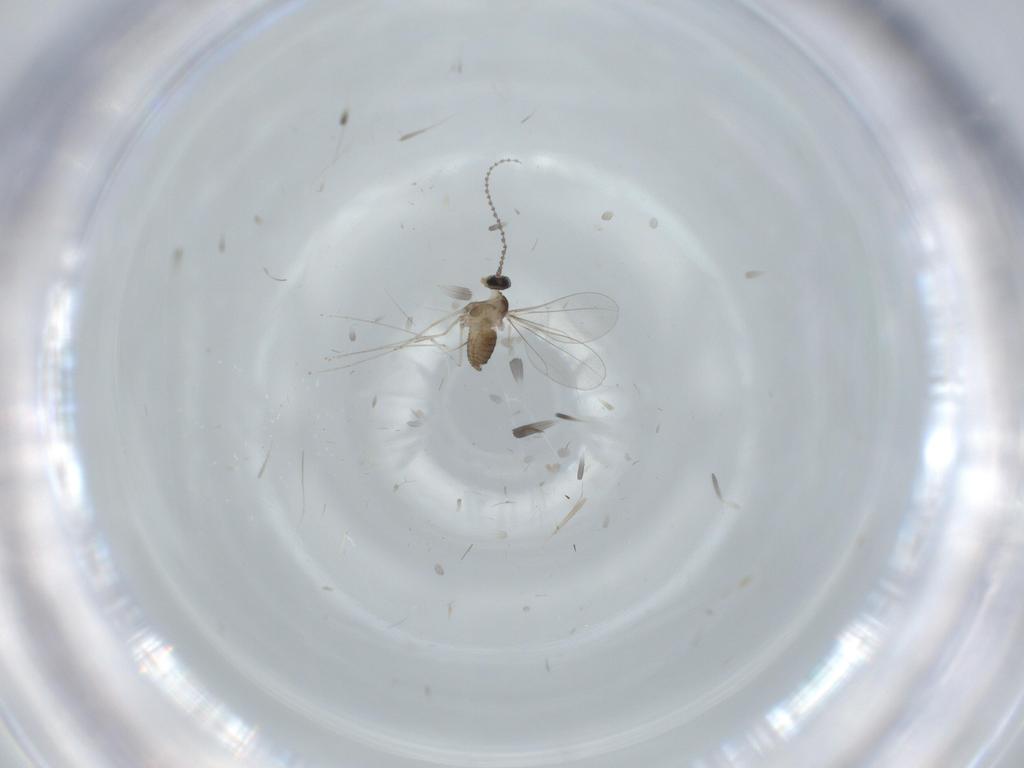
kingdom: Animalia
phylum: Arthropoda
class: Insecta
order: Diptera
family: Cecidomyiidae
